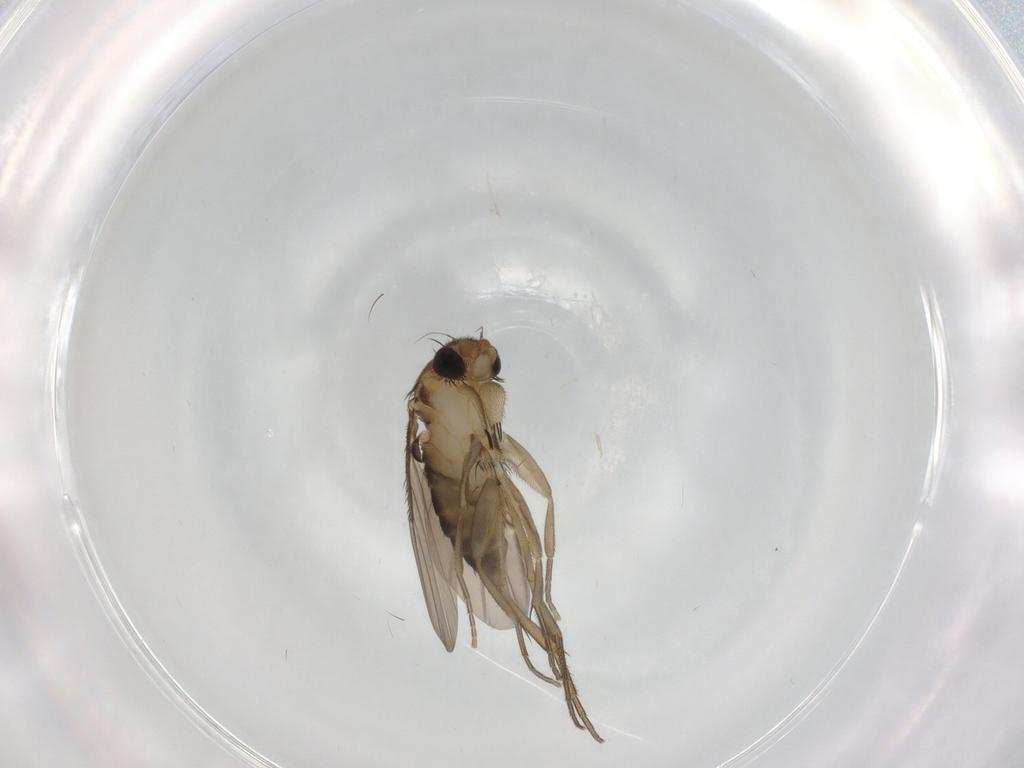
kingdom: Animalia
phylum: Arthropoda
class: Insecta
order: Diptera
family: Phoridae
